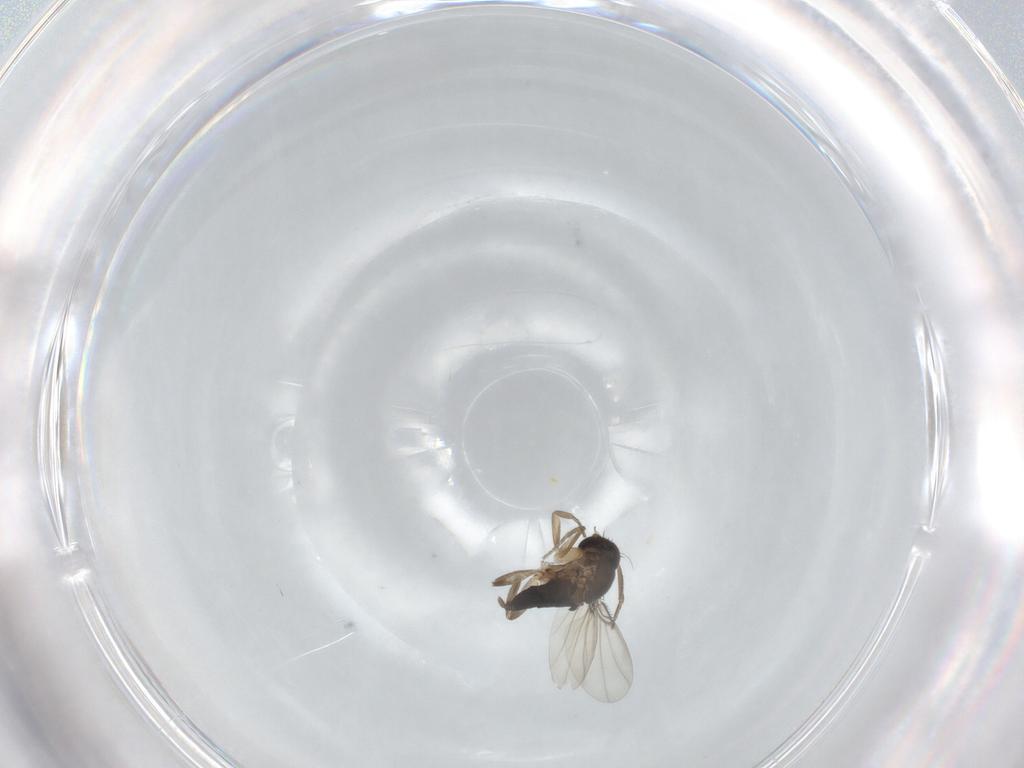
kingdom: Animalia
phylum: Arthropoda
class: Insecta
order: Diptera
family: Phoridae
